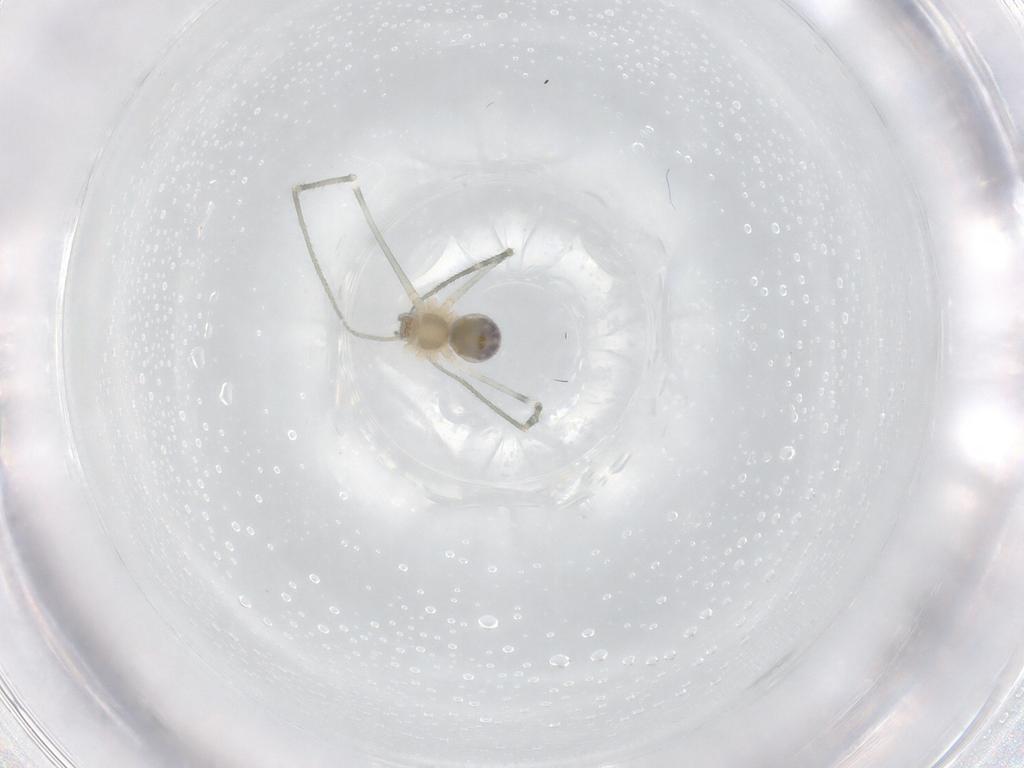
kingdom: Animalia
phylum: Arthropoda
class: Arachnida
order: Araneae
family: Pholcidae
